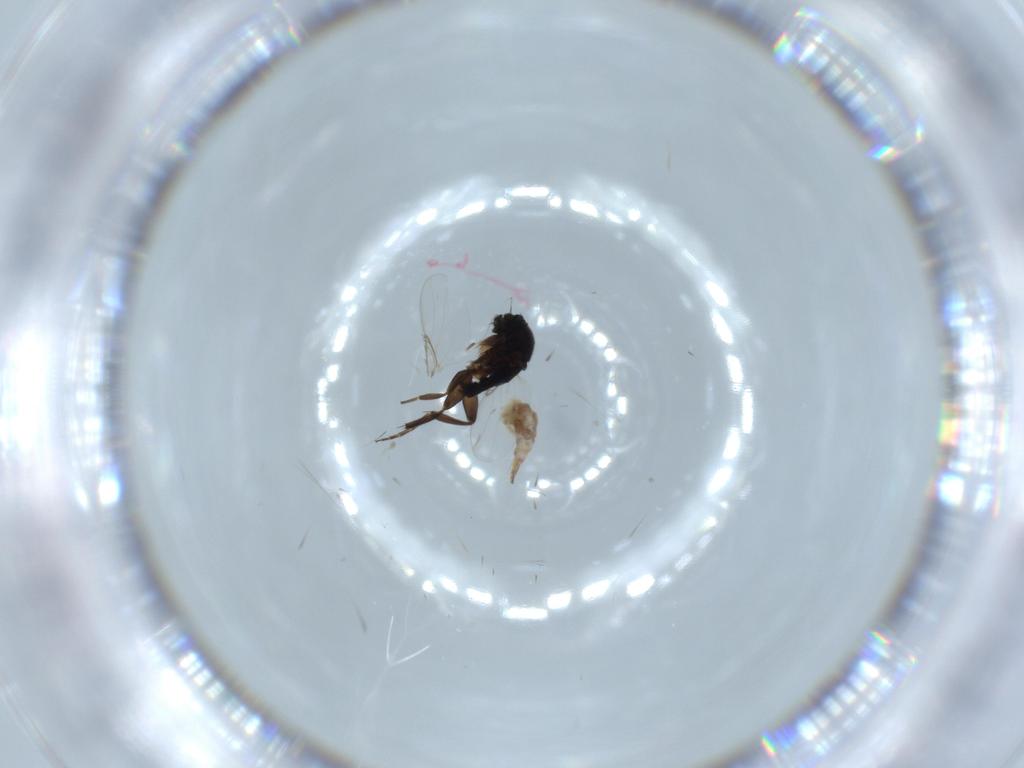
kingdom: Animalia
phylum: Arthropoda
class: Insecta
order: Diptera
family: Phoridae
